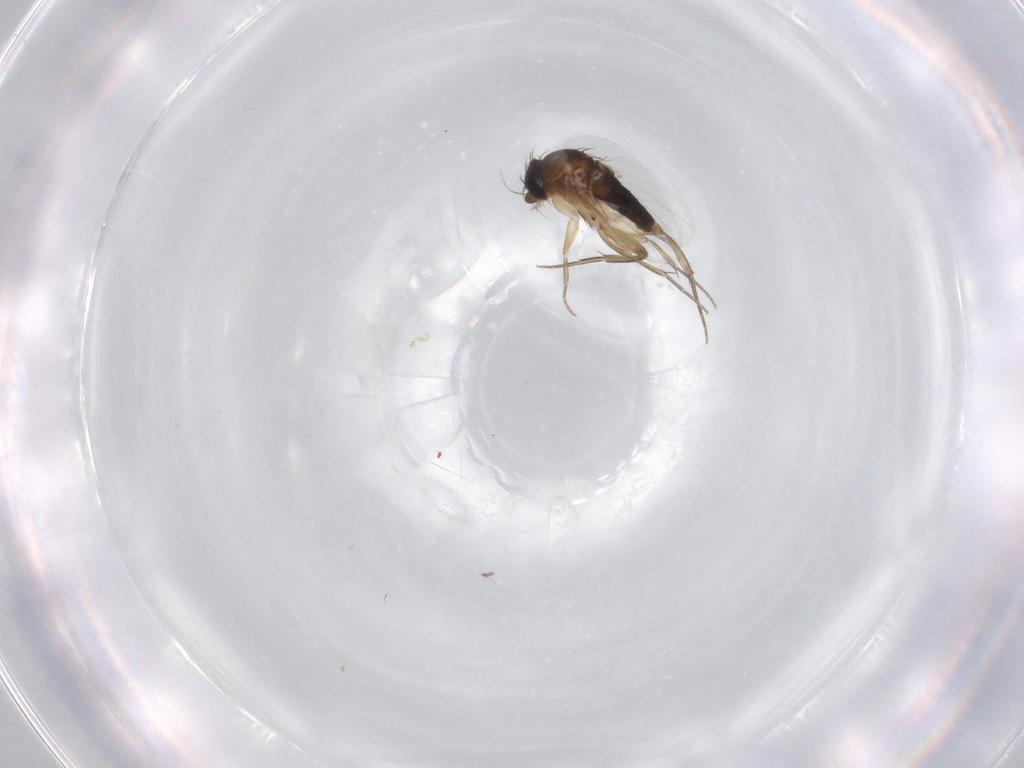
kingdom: Animalia
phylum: Arthropoda
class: Insecta
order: Diptera
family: Phoridae
